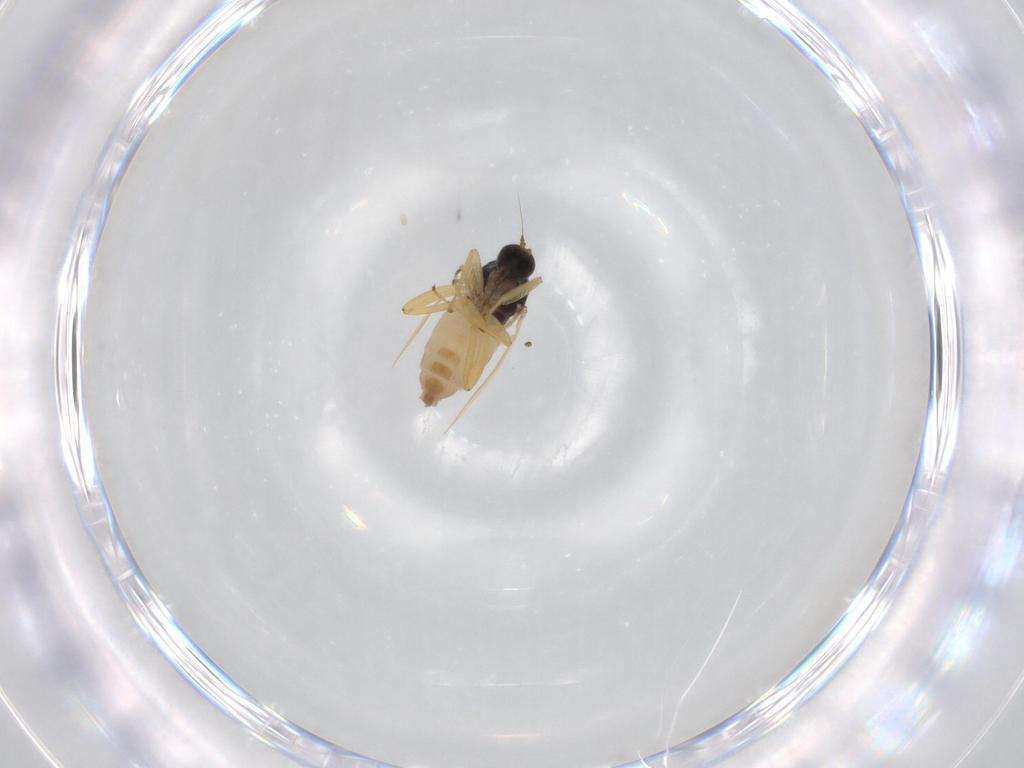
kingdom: Animalia
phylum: Arthropoda
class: Insecta
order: Diptera
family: Hybotidae
